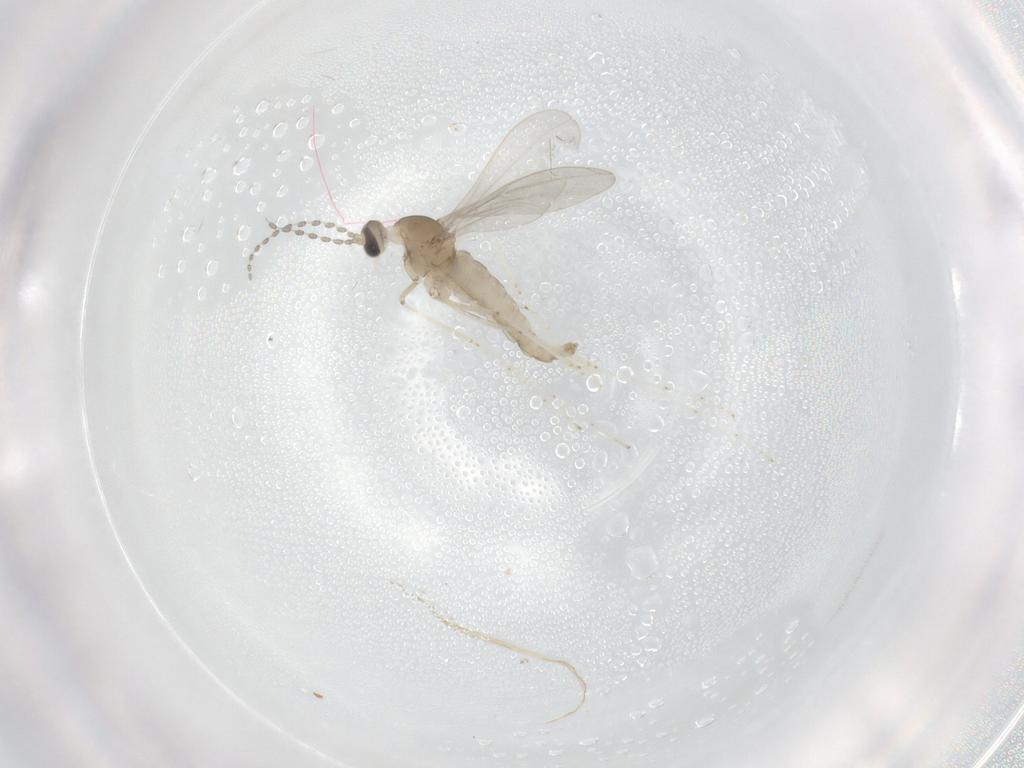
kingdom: Animalia
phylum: Arthropoda
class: Insecta
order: Diptera
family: Cecidomyiidae
